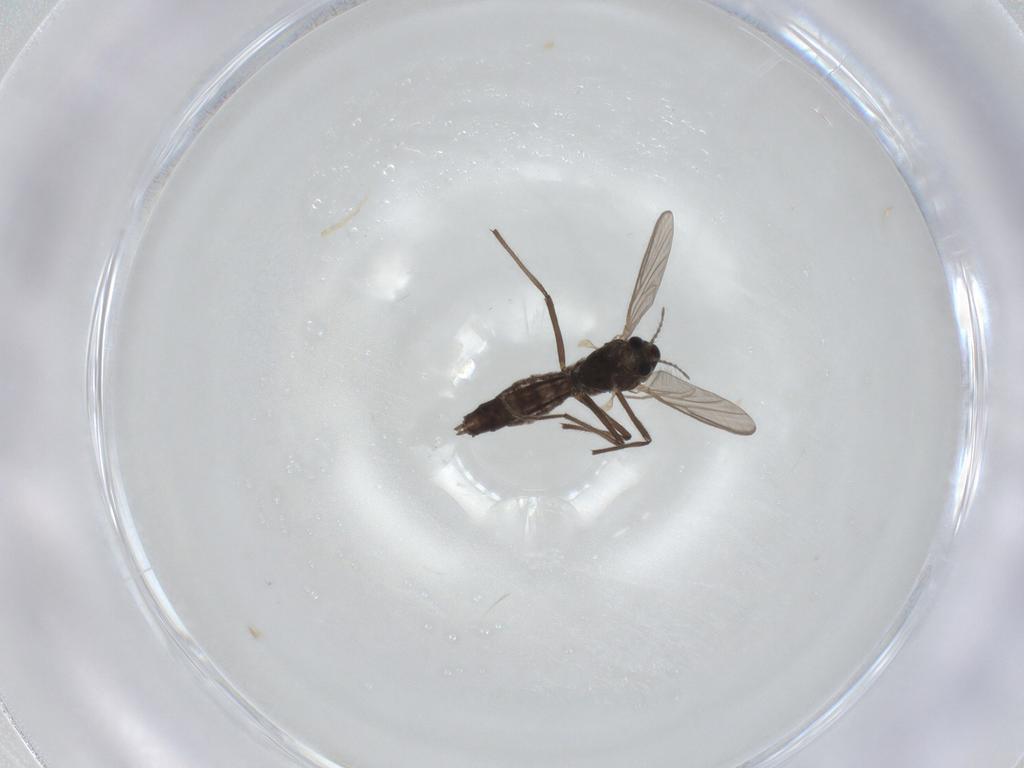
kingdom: Animalia
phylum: Arthropoda
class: Insecta
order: Diptera
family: Chironomidae
